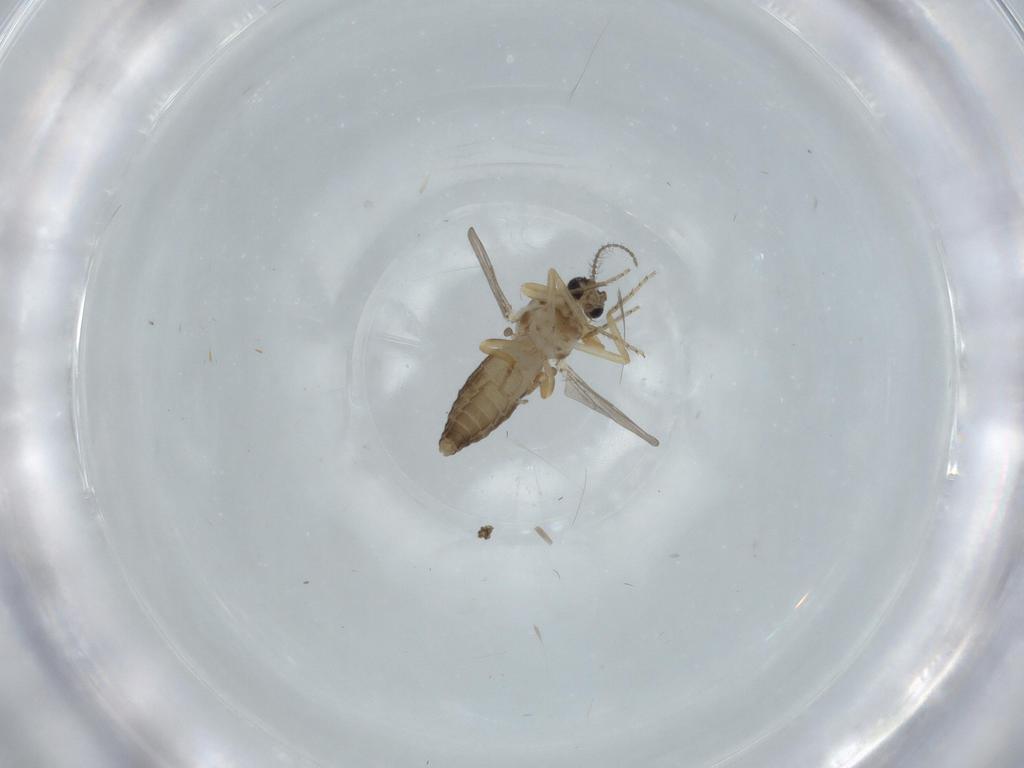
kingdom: Animalia
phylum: Arthropoda
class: Insecta
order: Diptera
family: Ceratopogonidae
